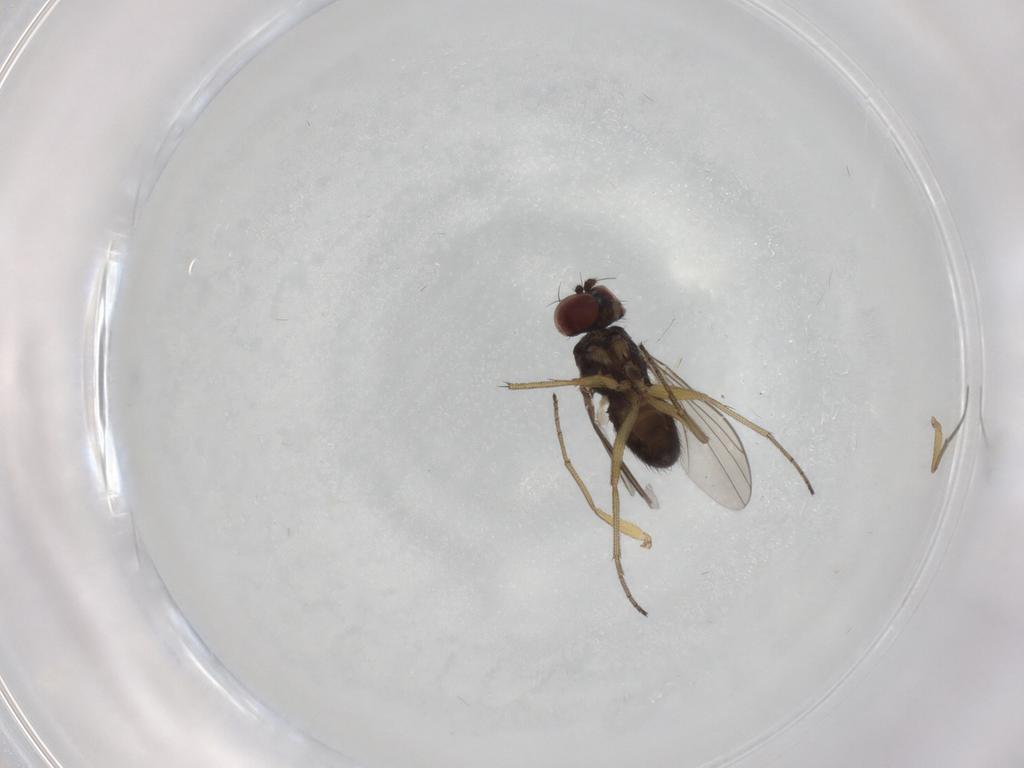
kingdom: Animalia
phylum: Arthropoda
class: Insecta
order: Diptera
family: Dolichopodidae
